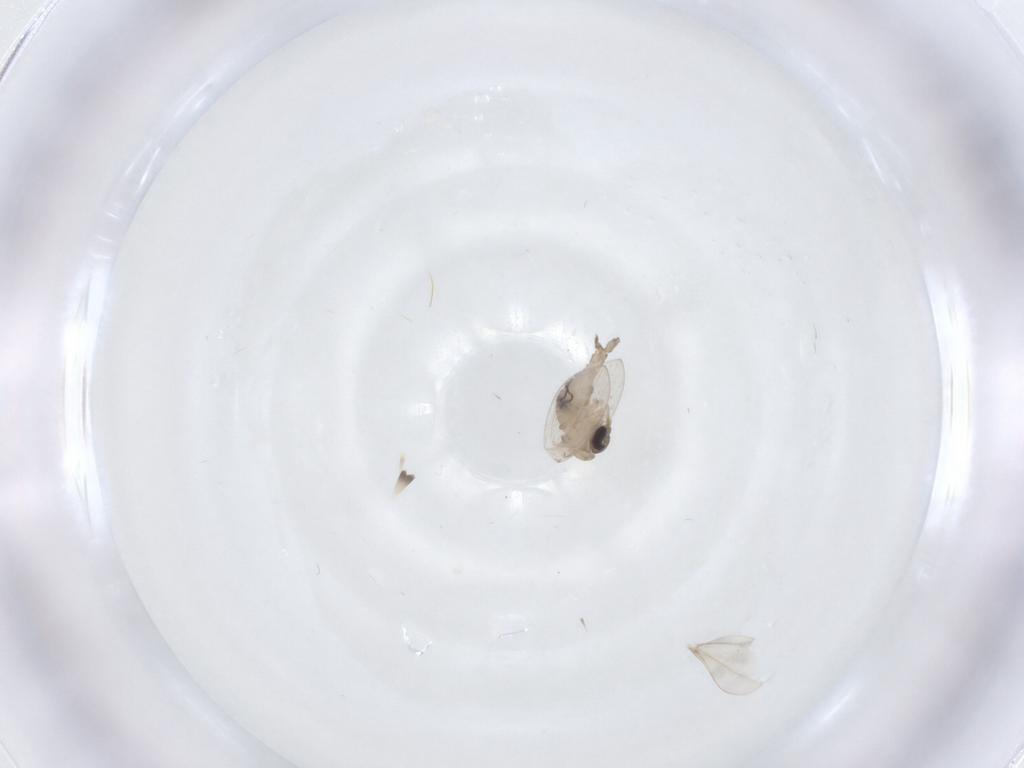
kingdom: Animalia
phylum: Arthropoda
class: Insecta
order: Diptera
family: Psychodidae
